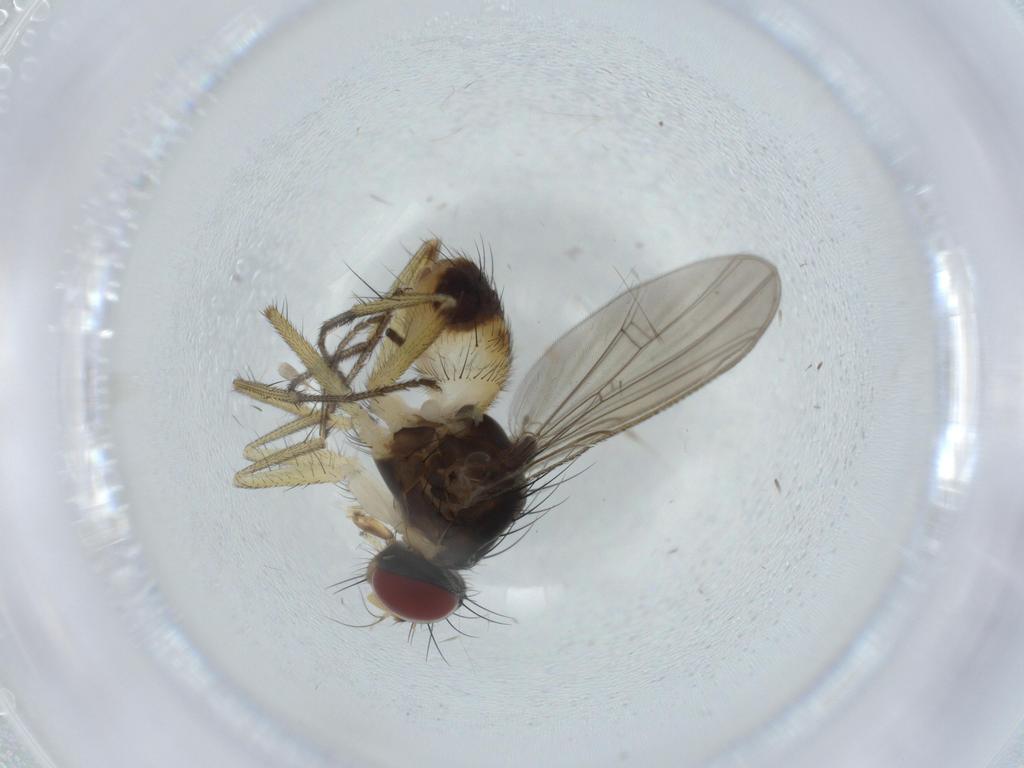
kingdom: Animalia
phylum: Arthropoda
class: Insecta
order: Diptera
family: Muscidae
